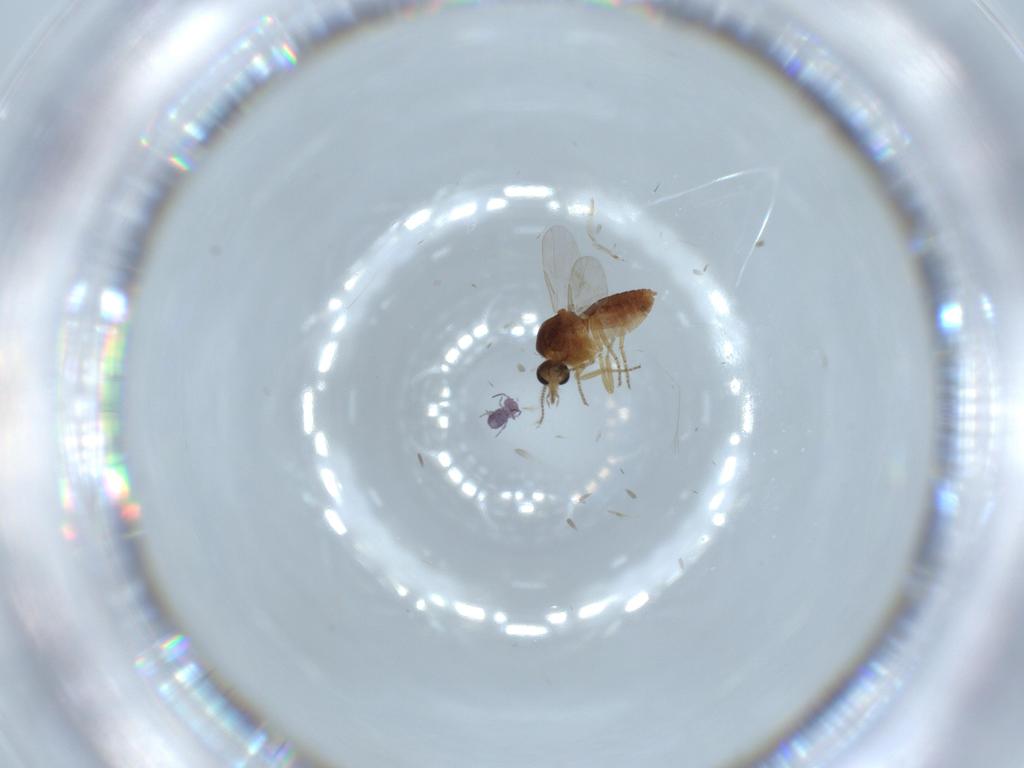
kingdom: Animalia
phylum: Arthropoda
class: Insecta
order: Diptera
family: Ceratopogonidae
